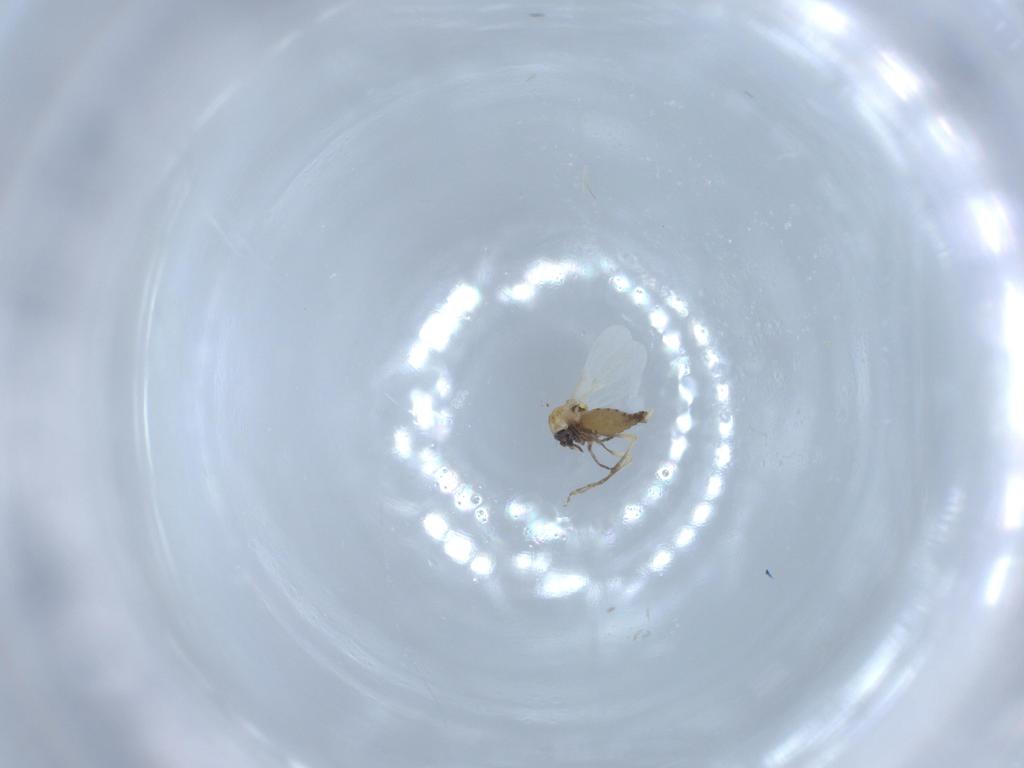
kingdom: Animalia
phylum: Arthropoda
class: Insecta
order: Diptera
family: Ceratopogonidae
